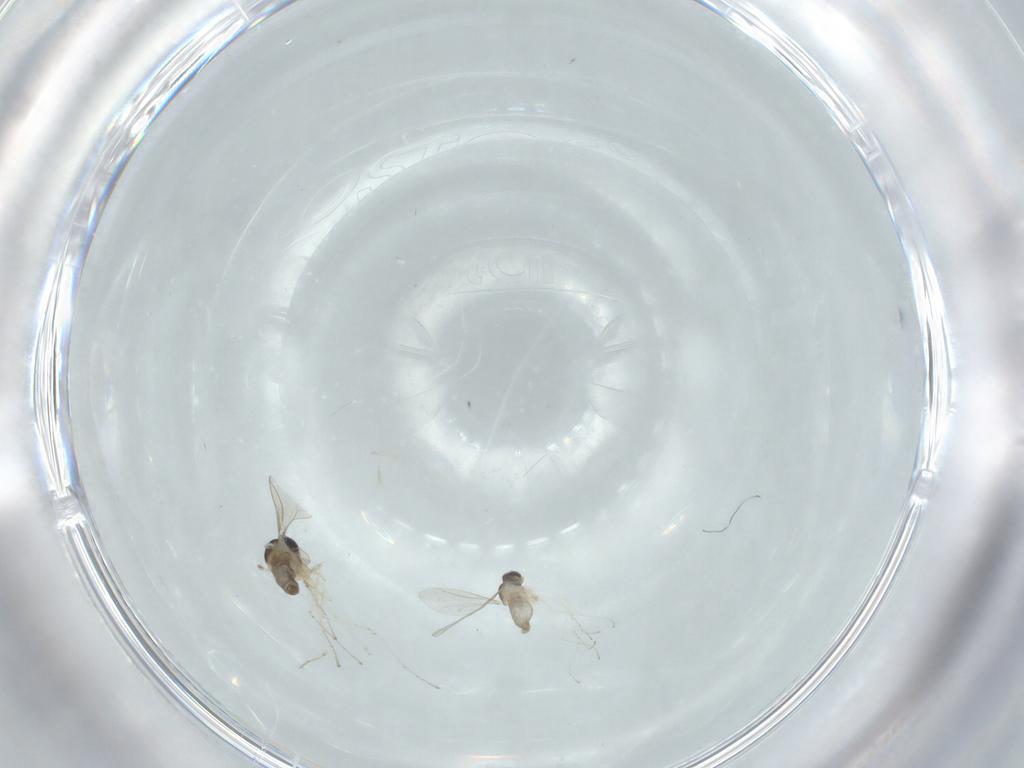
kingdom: Animalia
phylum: Arthropoda
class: Insecta
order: Diptera
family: Cecidomyiidae
